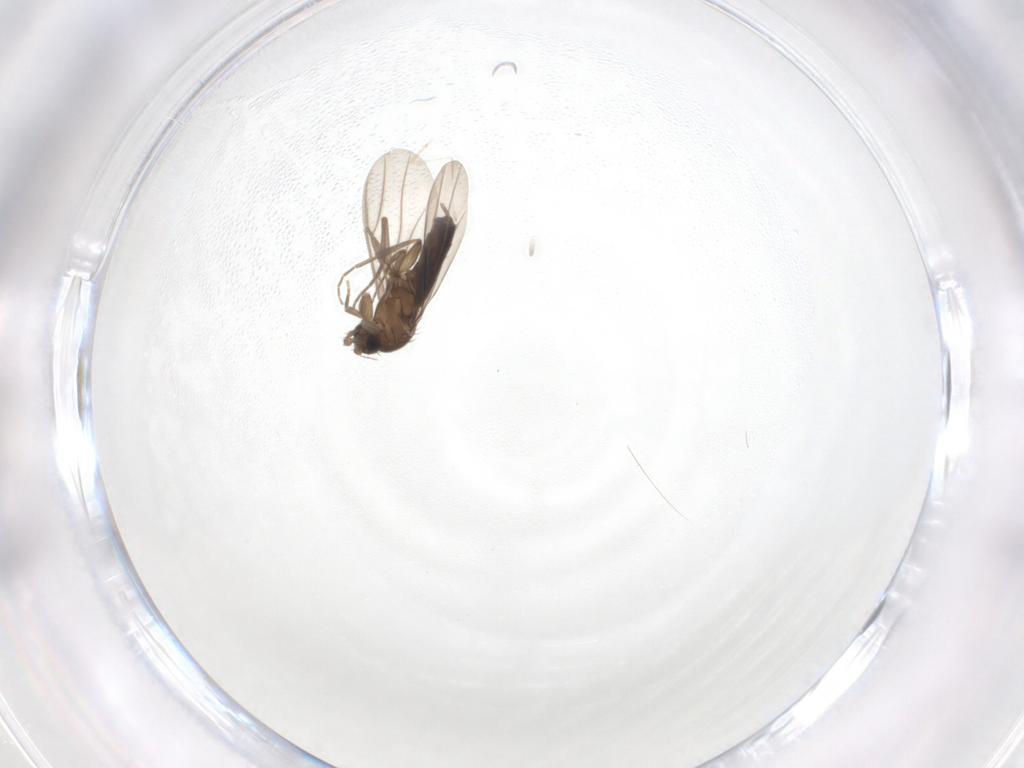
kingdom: Animalia
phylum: Arthropoda
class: Insecta
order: Diptera
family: Cecidomyiidae
